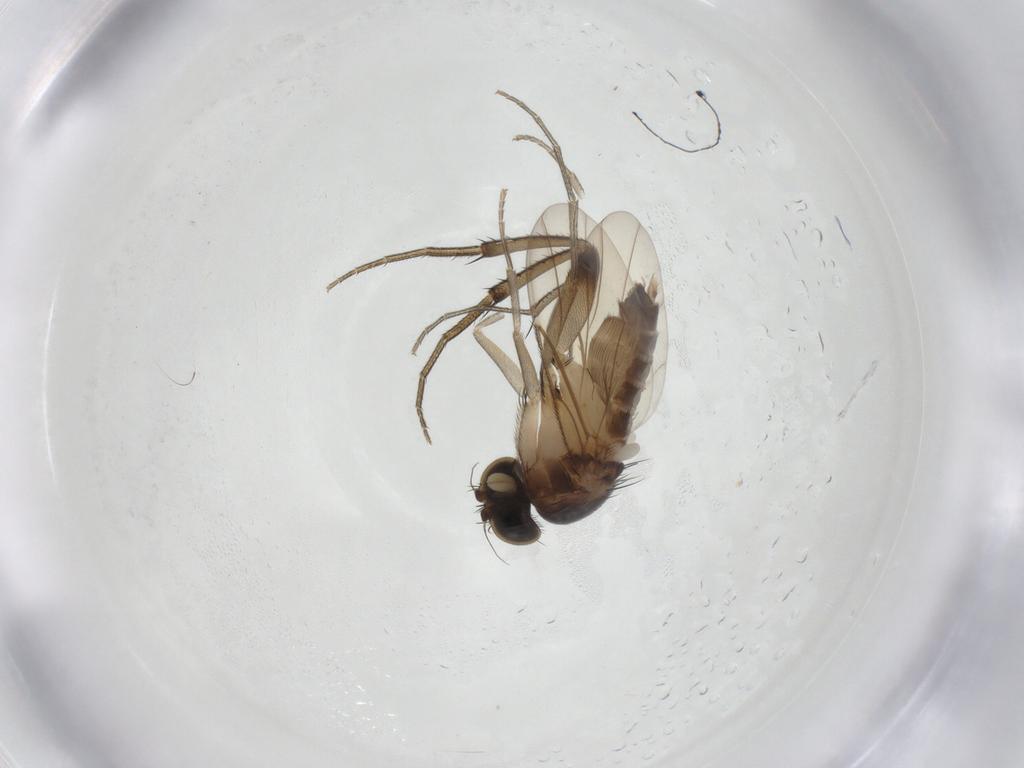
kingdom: Animalia
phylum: Arthropoda
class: Insecta
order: Diptera
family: Phoridae
